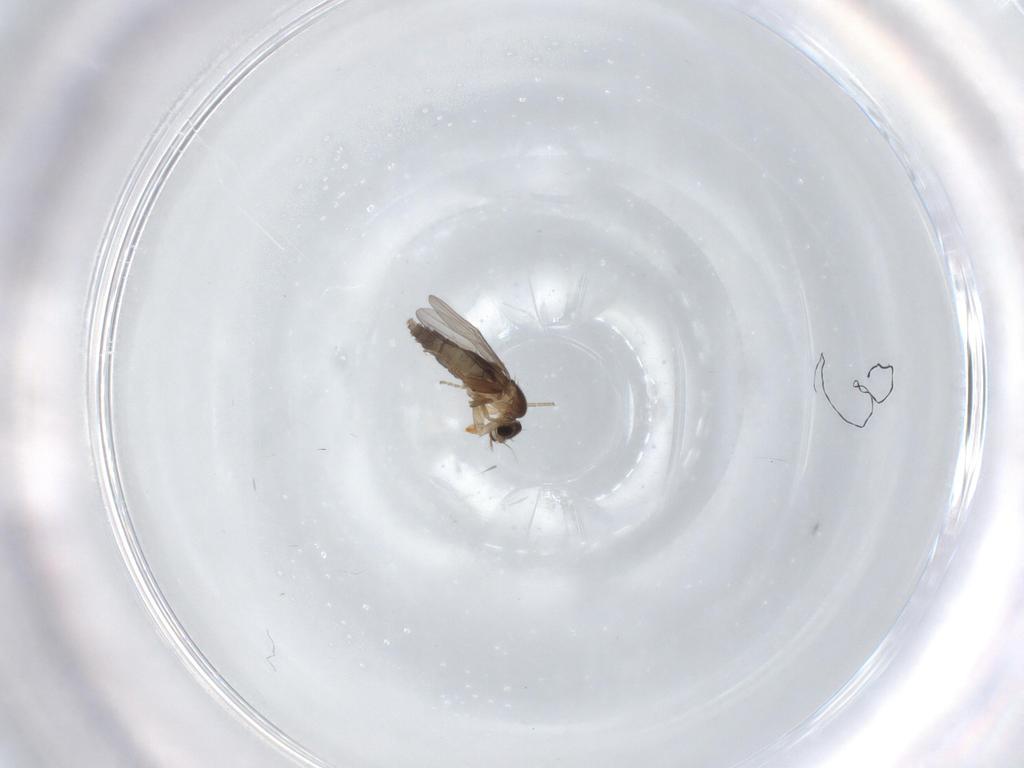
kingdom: Animalia
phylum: Arthropoda
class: Insecta
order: Diptera
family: Phoridae
